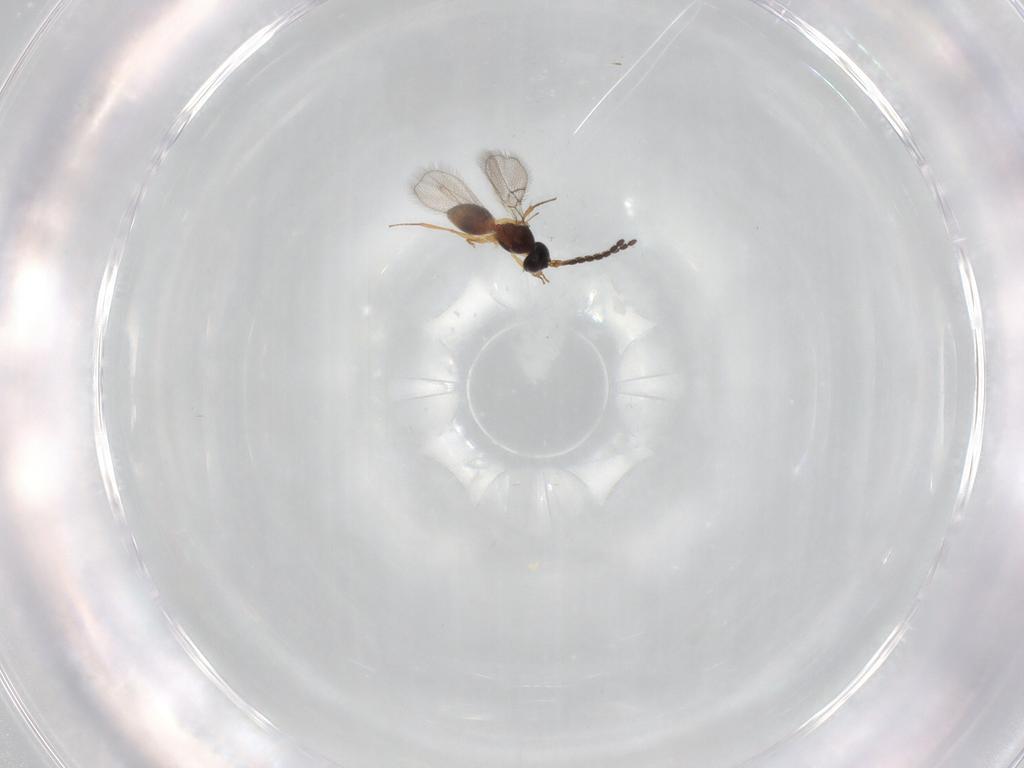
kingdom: Animalia
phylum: Arthropoda
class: Insecta
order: Hymenoptera
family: Figitidae
